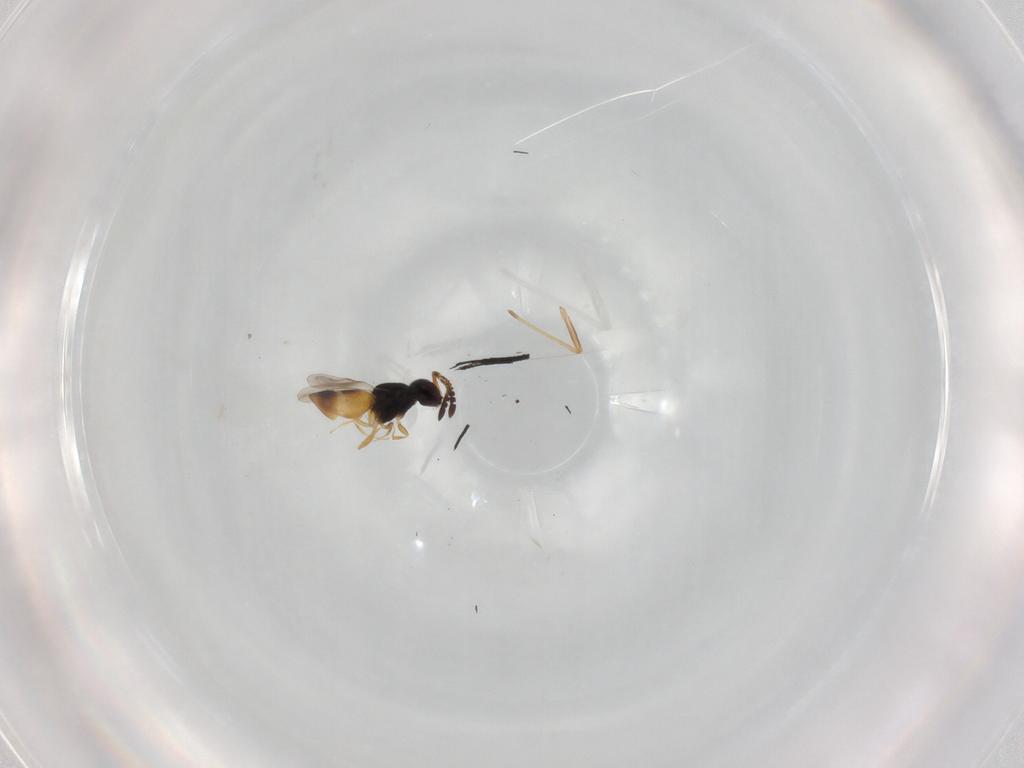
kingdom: Animalia
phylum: Arthropoda
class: Insecta
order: Hymenoptera
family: Scelionidae
